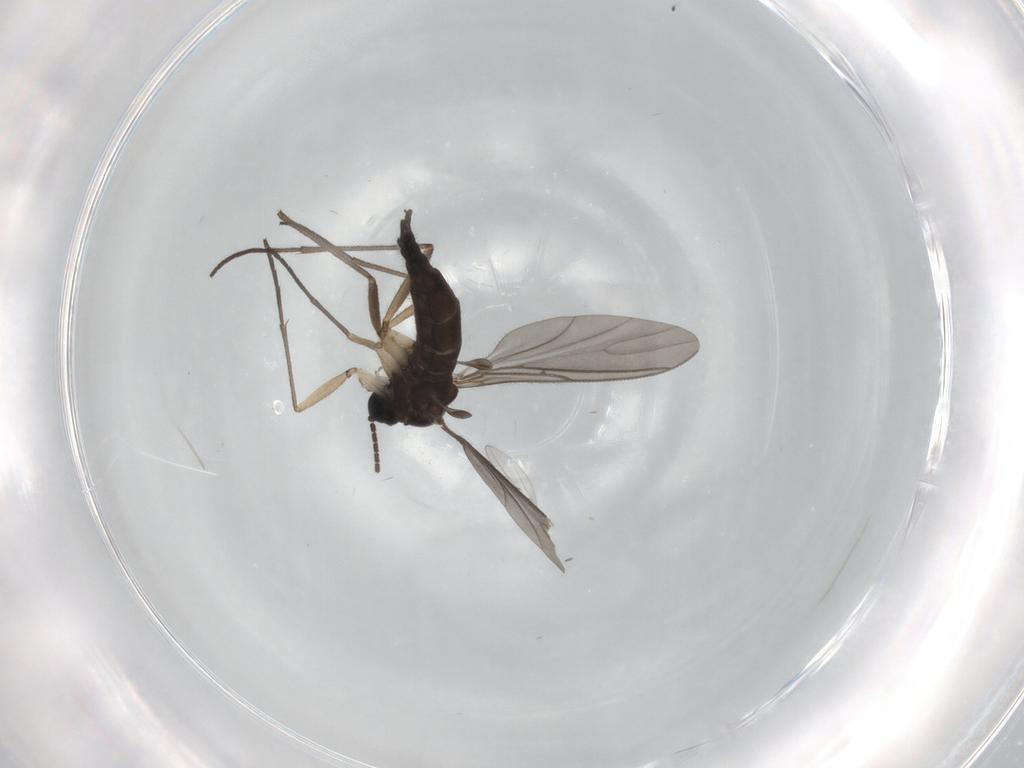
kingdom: Animalia
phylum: Arthropoda
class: Insecta
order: Diptera
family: Sciaridae
